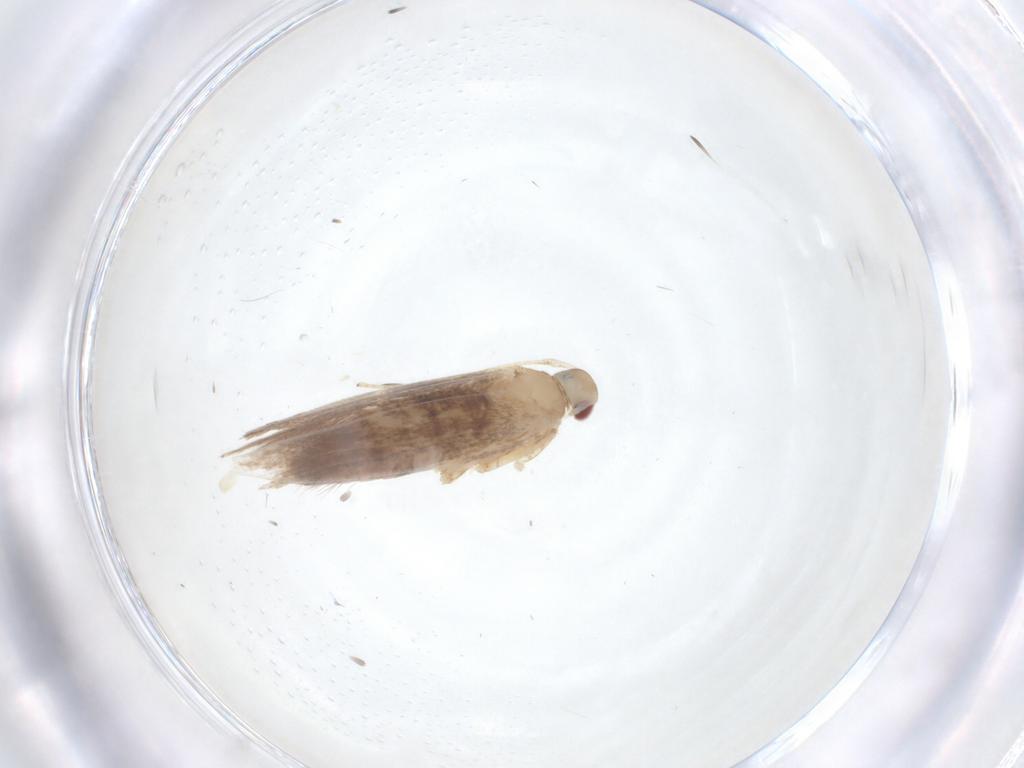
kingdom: Animalia
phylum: Arthropoda
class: Insecta
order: Lepidoptera
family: Cosmopterigidae
